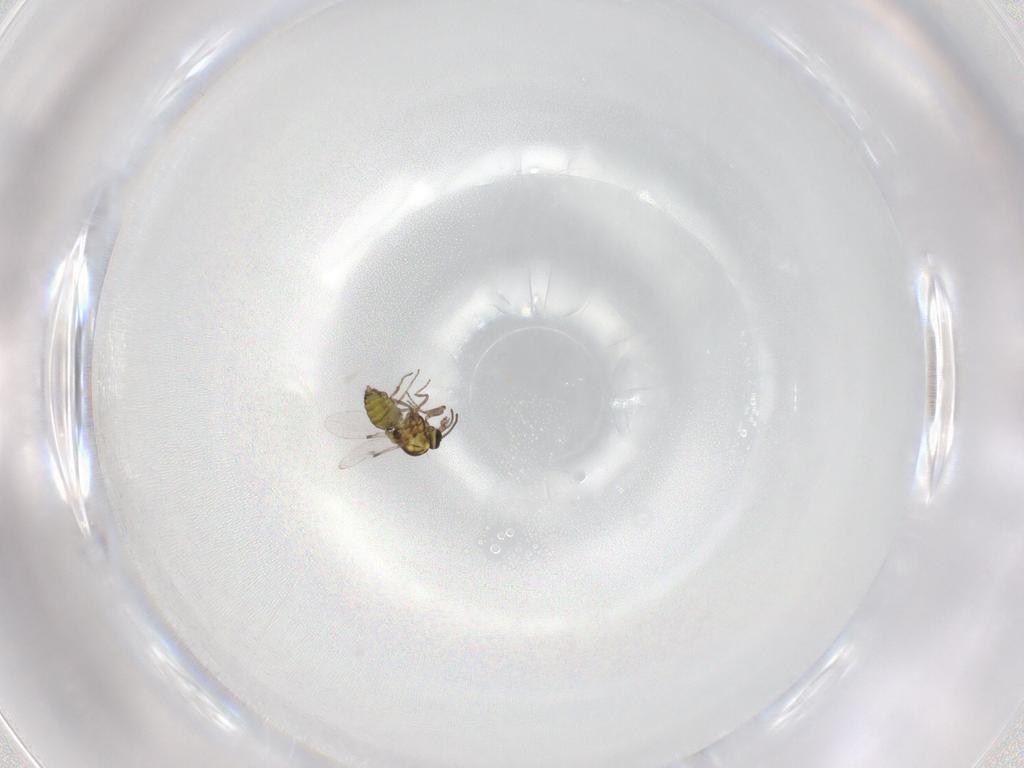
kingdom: Animalia
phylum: Arthropoda
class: Insecta
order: Diptera
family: Ceratopogonidae
